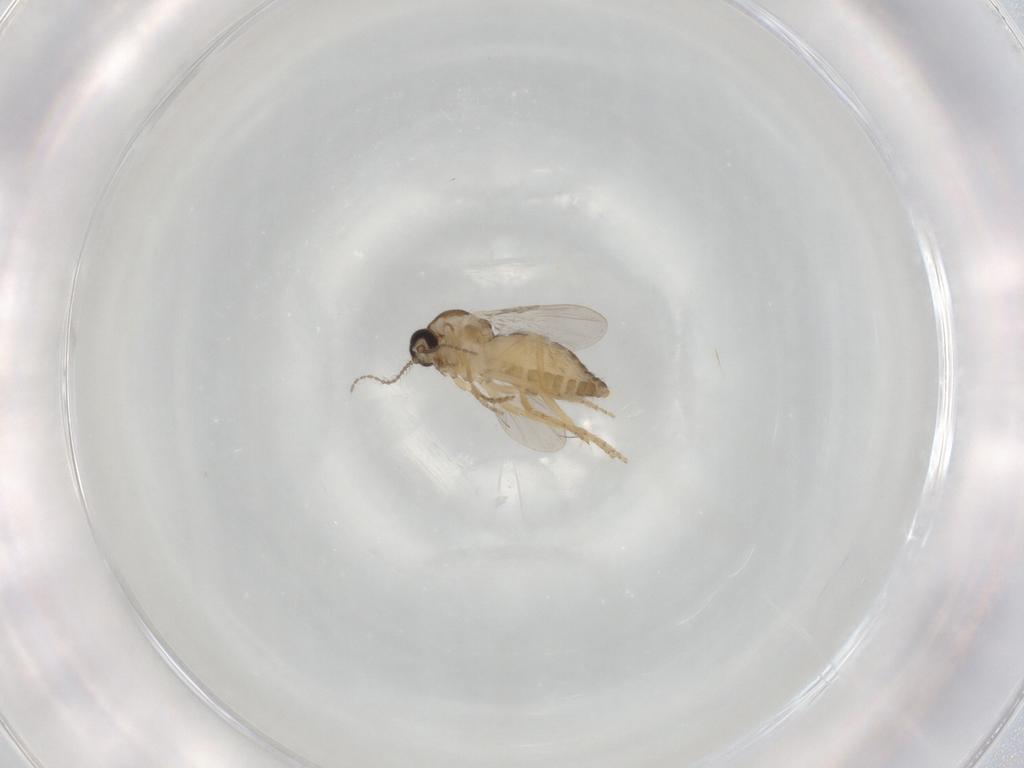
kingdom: Animalia
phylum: Arthropoda
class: Insecta
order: Diptera
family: Ceratopogonidae
